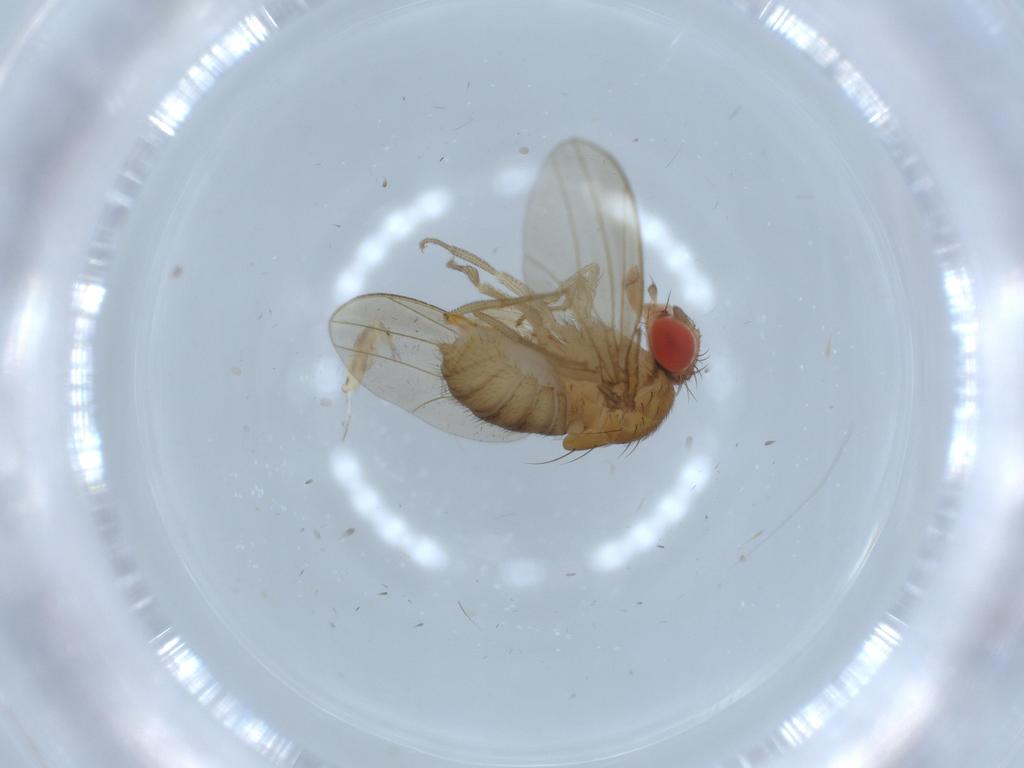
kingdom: Animalia
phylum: Arthropoda
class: Insecta
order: Diptera
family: Drosophilidae
